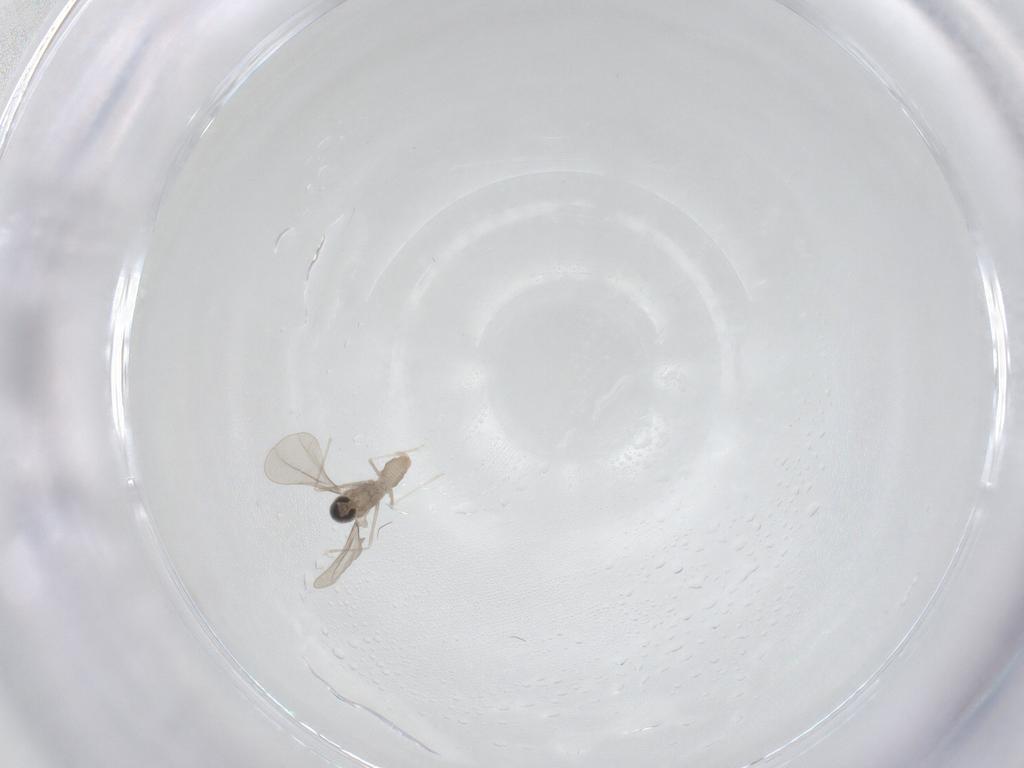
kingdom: Animalia
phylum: Arthropoda
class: Insecta
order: Diptera
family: Cecidomyiidae
